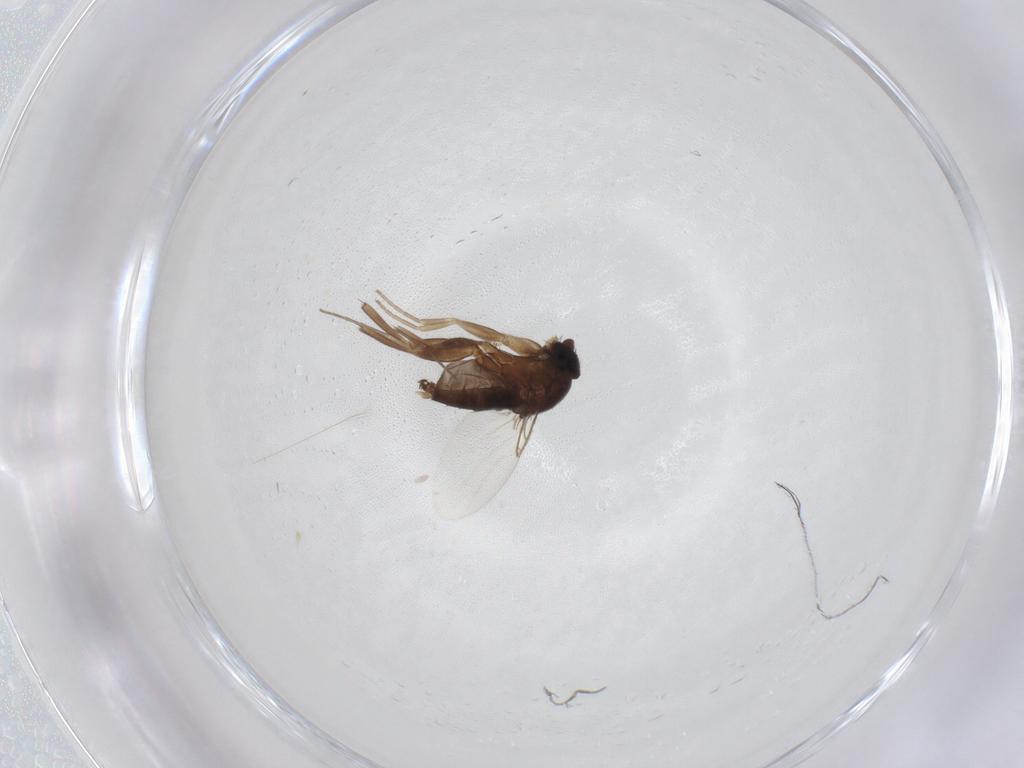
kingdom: Animalia
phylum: Arthropoda
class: Insecta
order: Diptera
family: Phoridae
